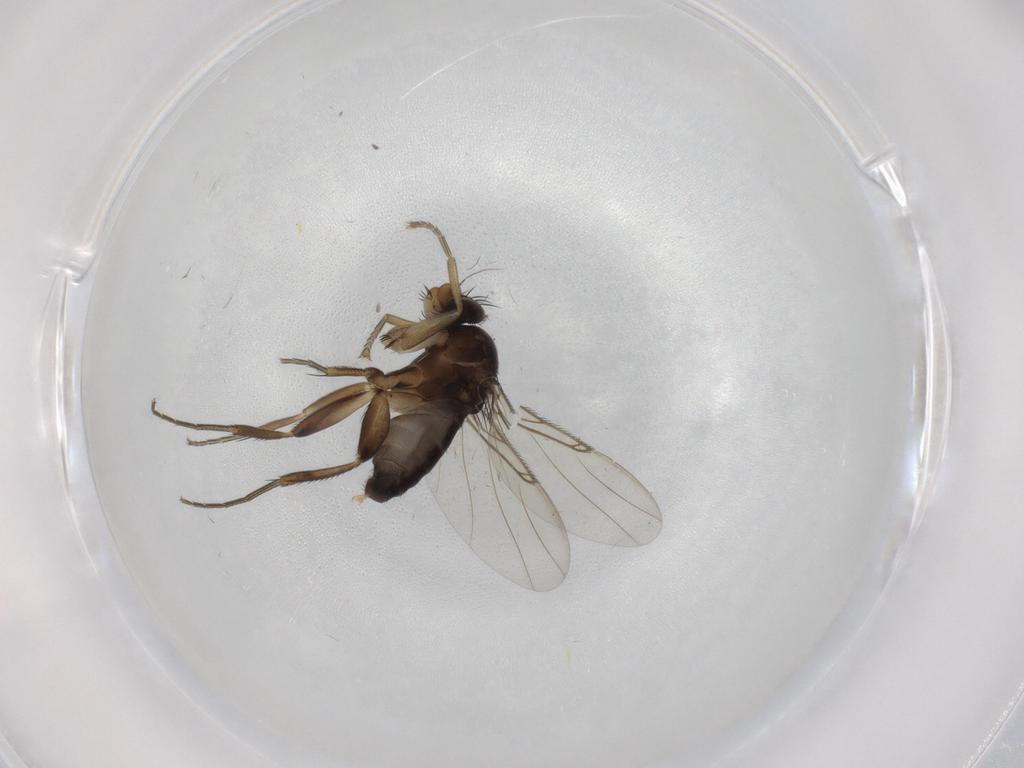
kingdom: Animalia
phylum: Arthropoda
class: Insecta
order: Diptera
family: Phoridae
